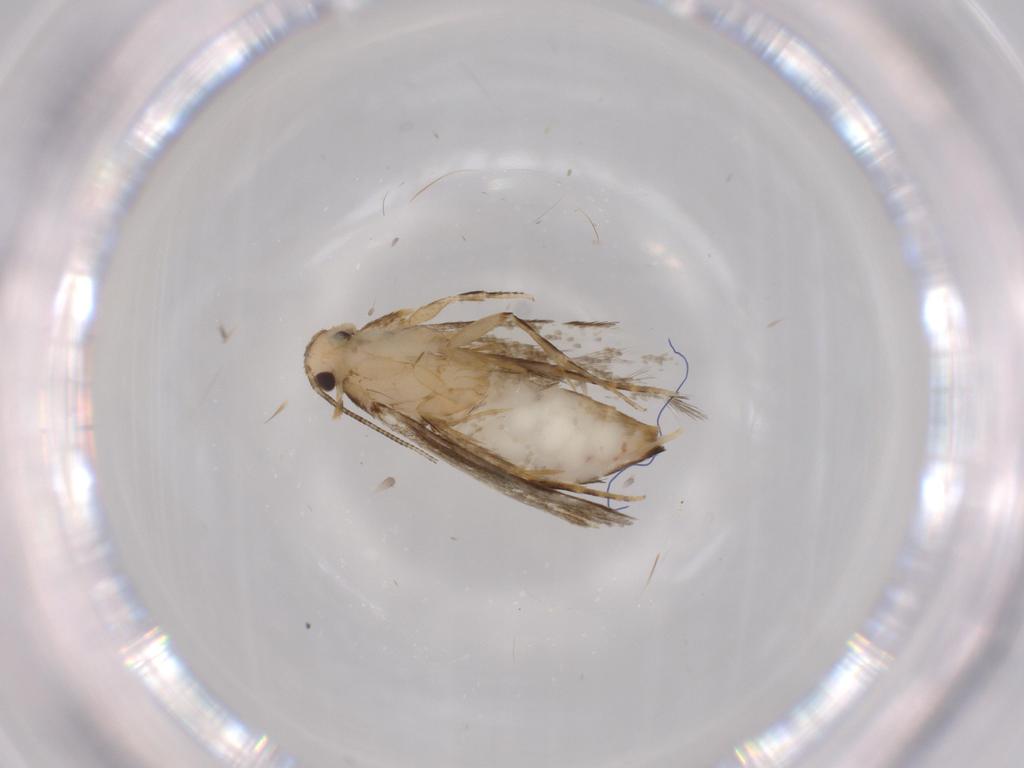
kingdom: Animalia
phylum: Arthropoda
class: Insecta
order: Lepidoptera
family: Tineidae
